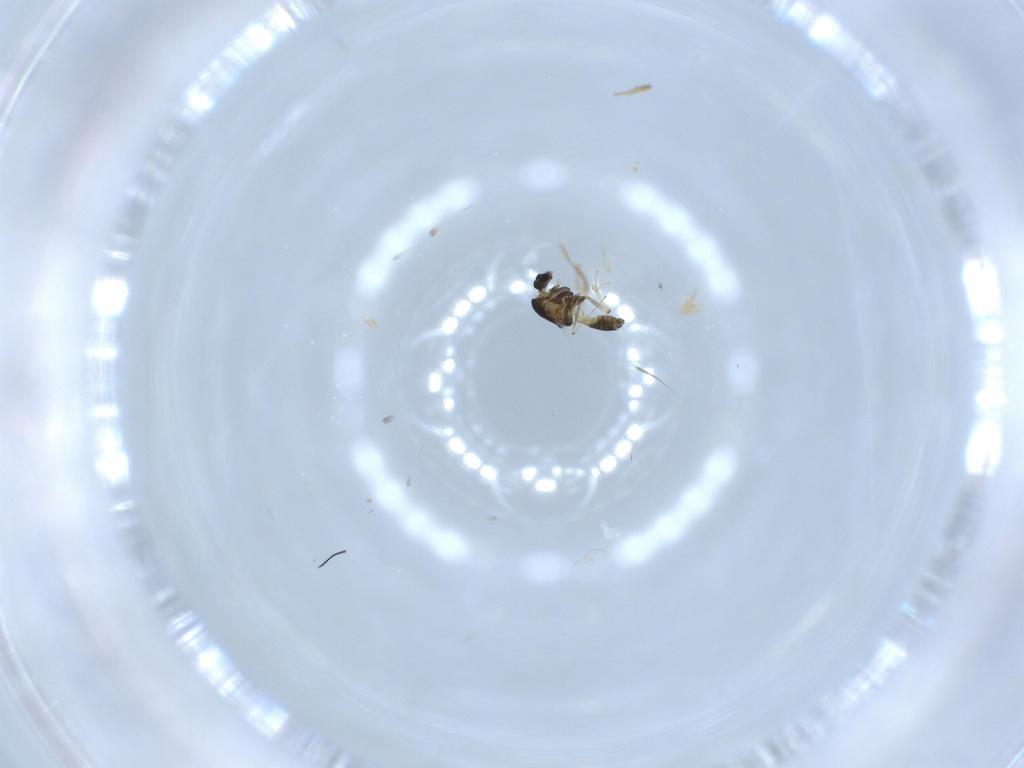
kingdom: Animalia
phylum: Arthropoda
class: Insecta
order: Diptera
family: Chironomidae
